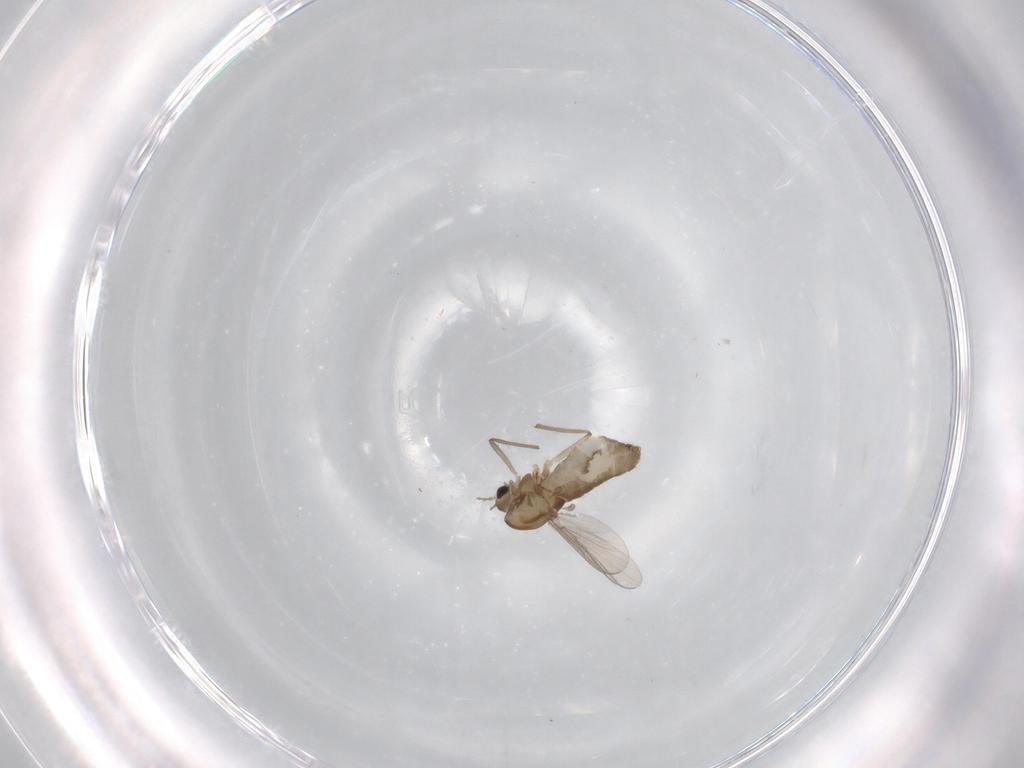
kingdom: Animalia
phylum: Arthropoda
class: Insecta
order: Diptera
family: Chironomidae
